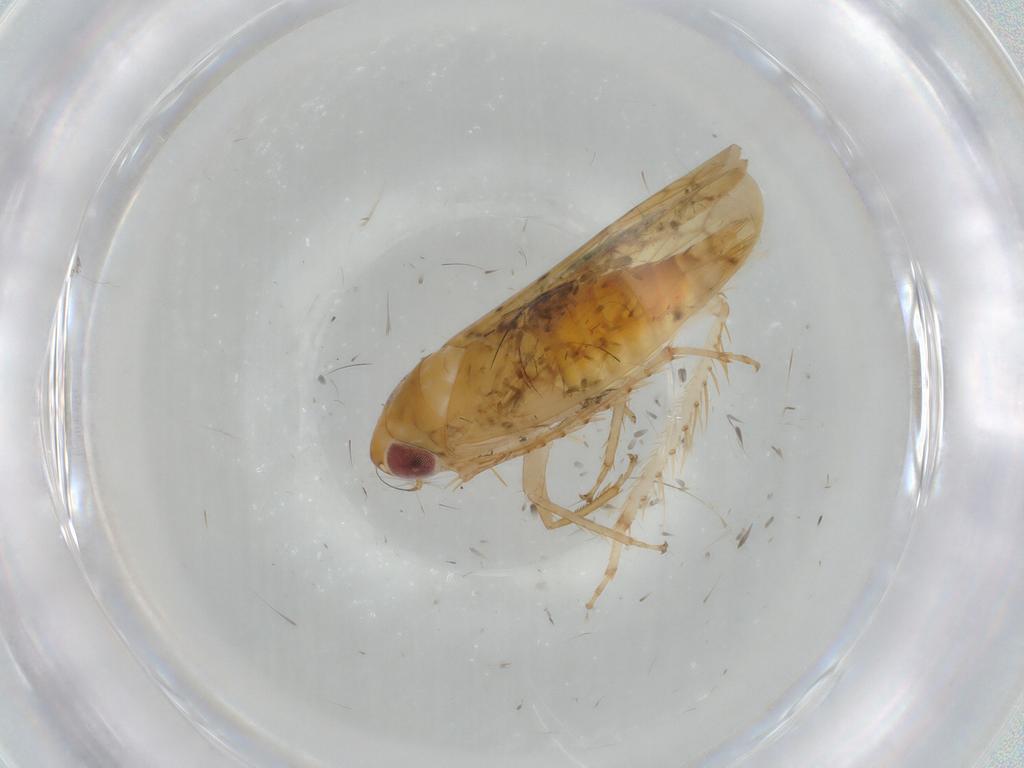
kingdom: Animalia
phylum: Arthropoda
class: Insecta
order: Hemiptera
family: Cicadellidae
